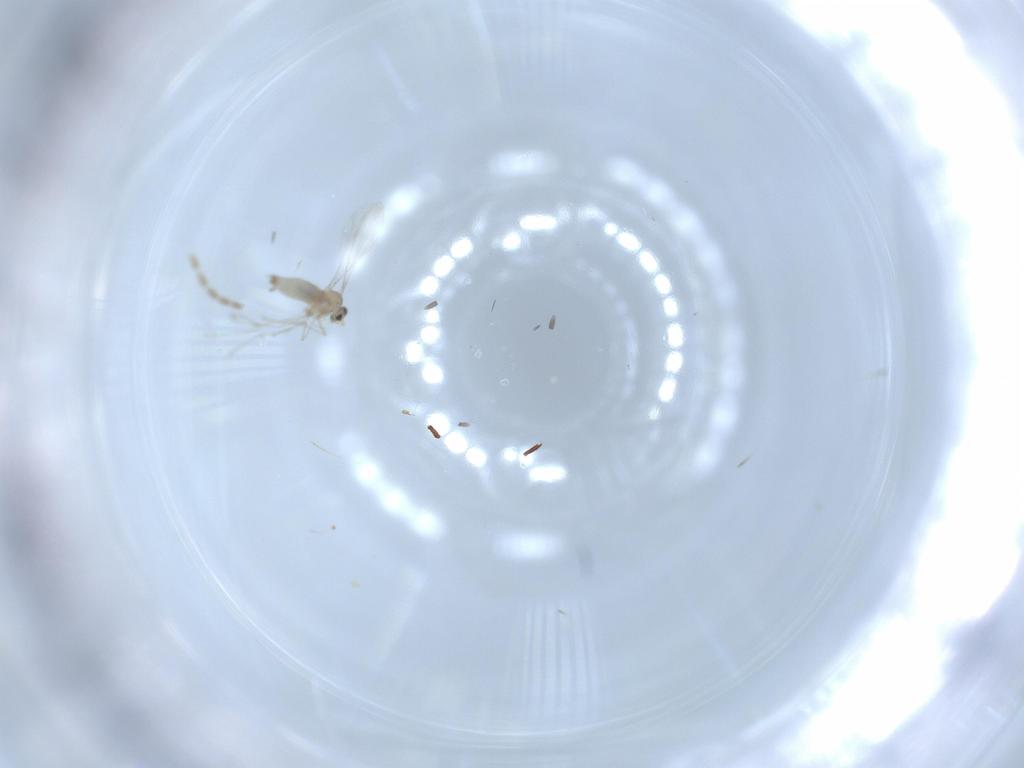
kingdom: Animalia
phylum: Arthropoda
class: Insecta
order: Diptera
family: Cecidomyiidae
